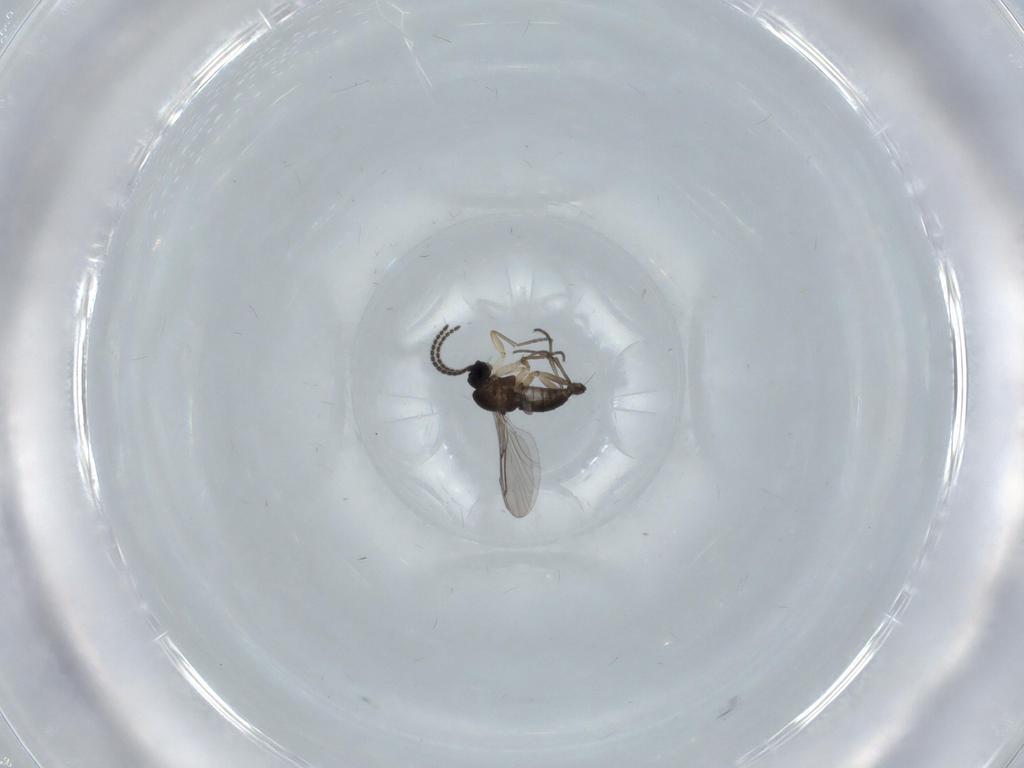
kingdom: Animalia
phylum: Arthropoda
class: Insecta
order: Diptera
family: Sciaridae
